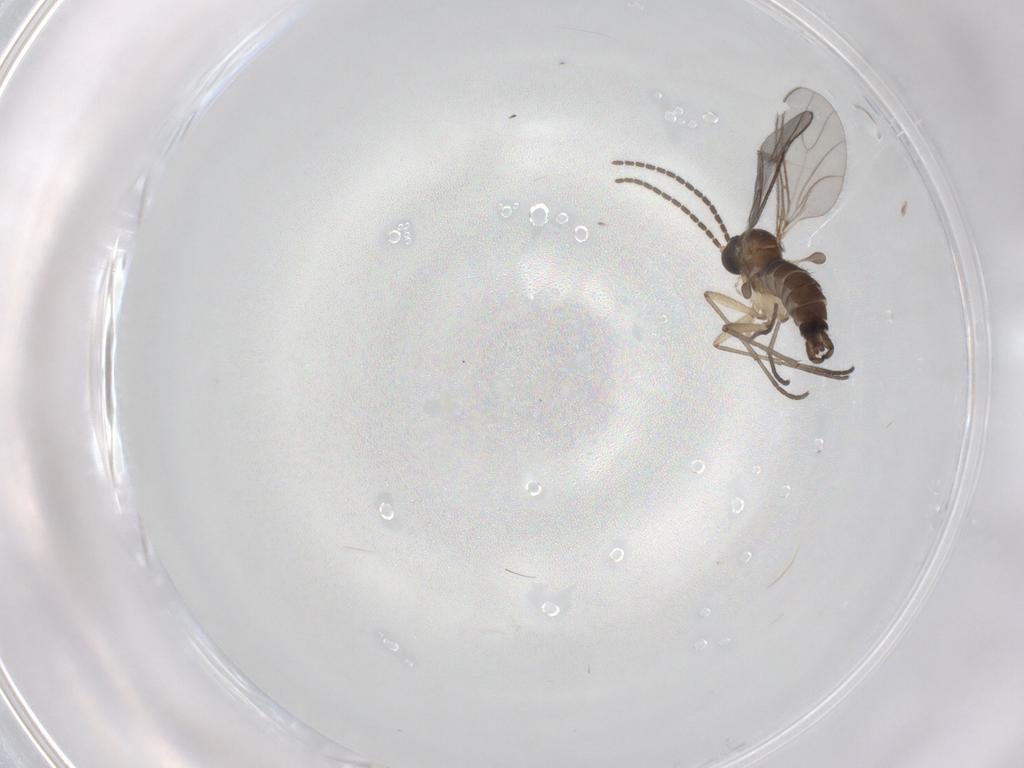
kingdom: Animalia
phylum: Arthropoda
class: Insecta
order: Diptera
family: Sciaridae
